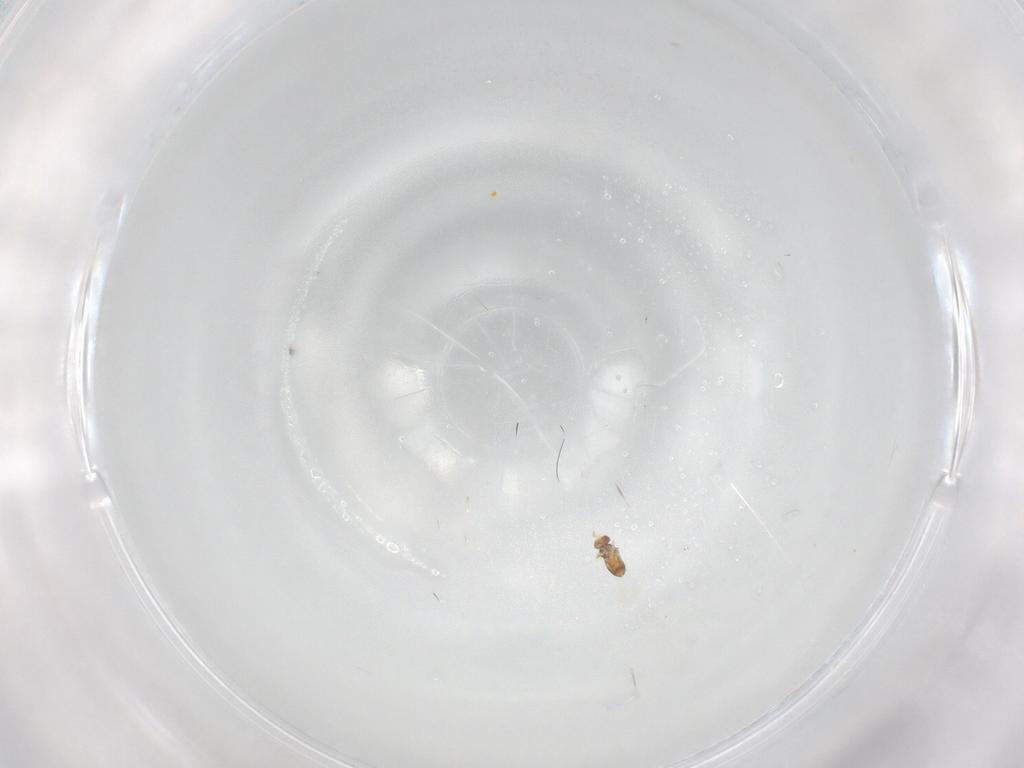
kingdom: Animalia
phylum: Arthropoda
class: Insecta
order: Hymenoptera
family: Trichogrammatidae
